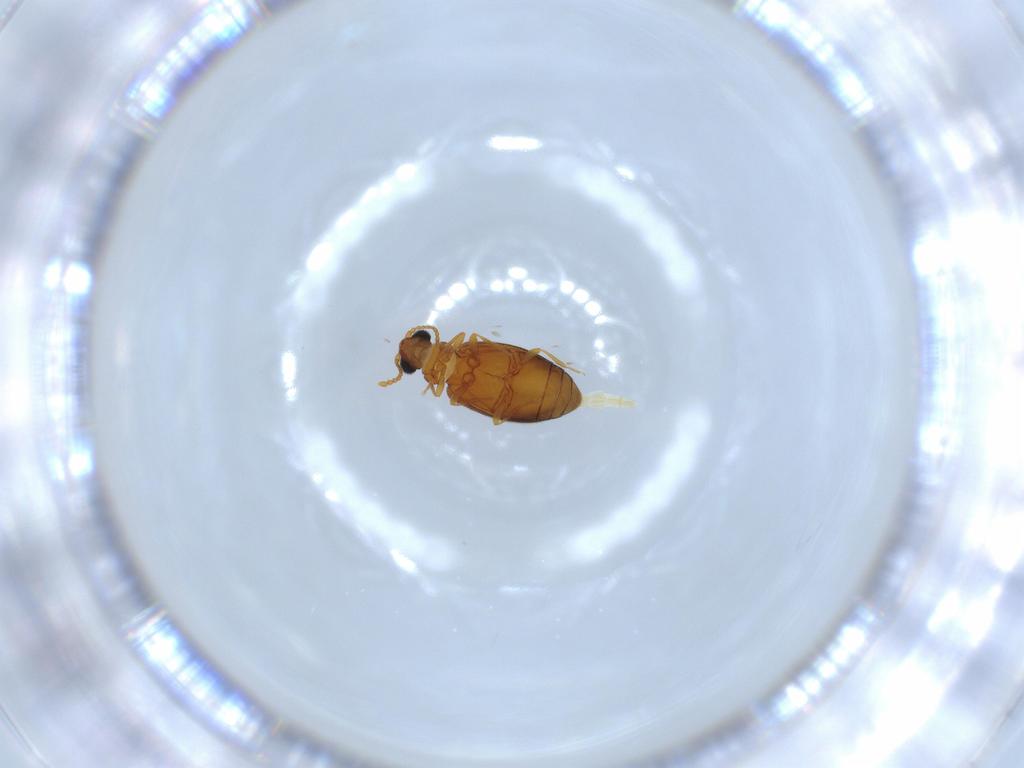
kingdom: Animalia
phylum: Arthropoda
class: Insecta
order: Coleoptera
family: Aderidae
